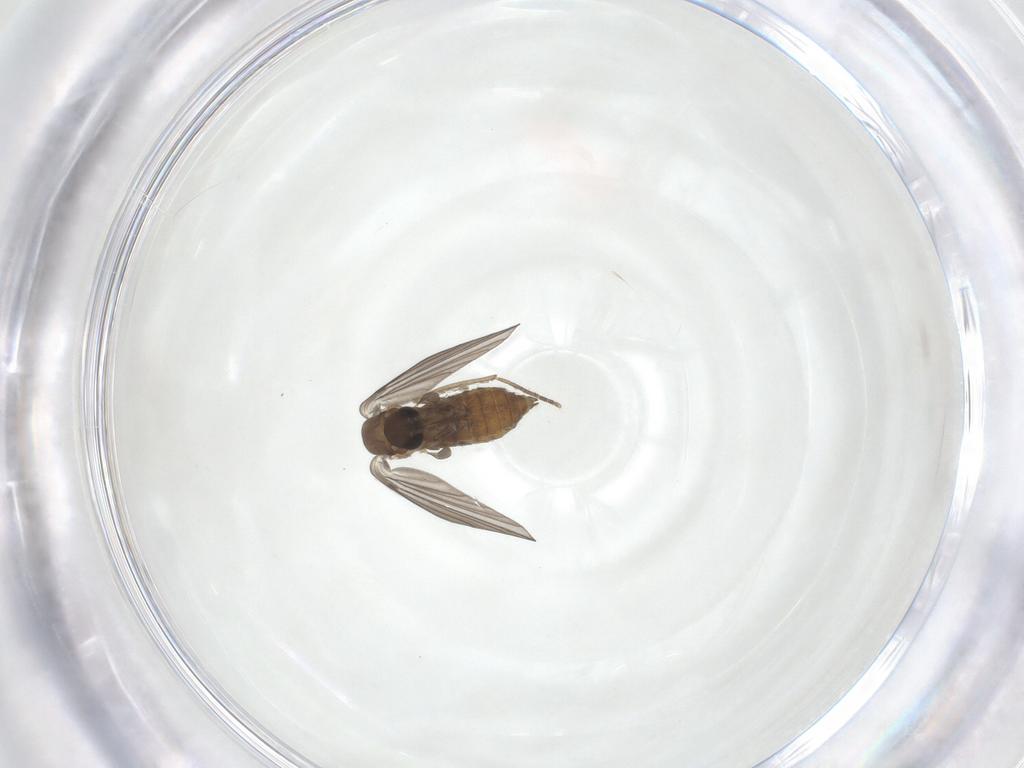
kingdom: Animalia
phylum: Arthropoda
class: Insecta
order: Diptera
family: Psychodidae
